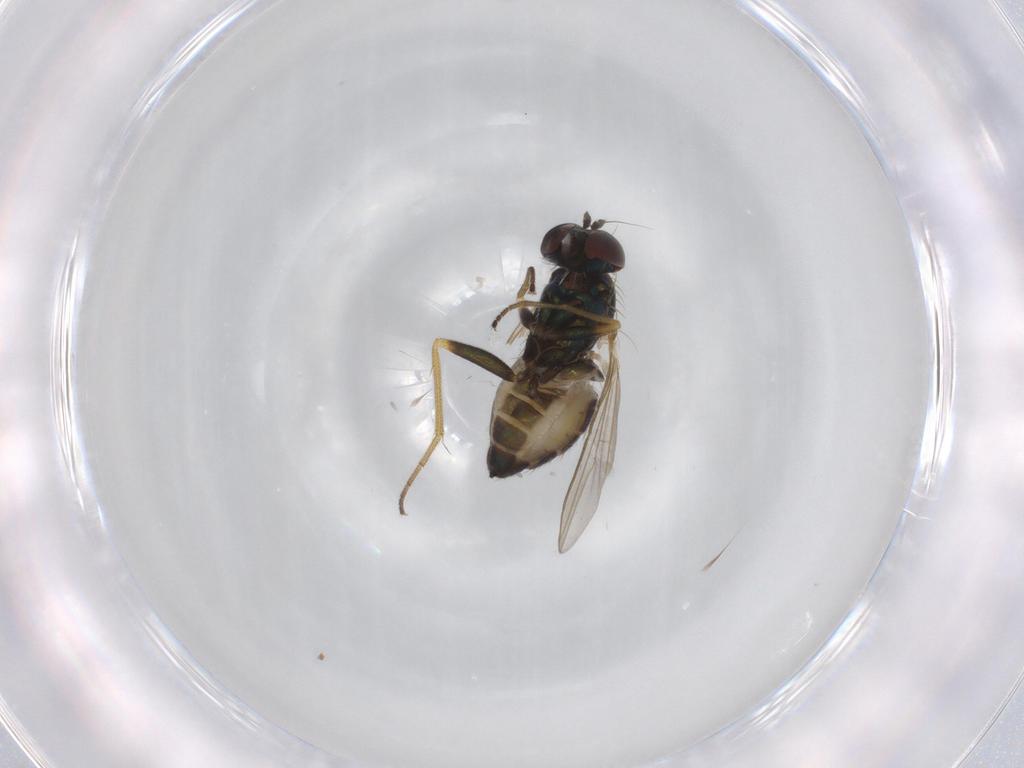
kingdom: Animalia
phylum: Arthropoda
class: Insecta
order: Diptera
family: Dolichopodidae
